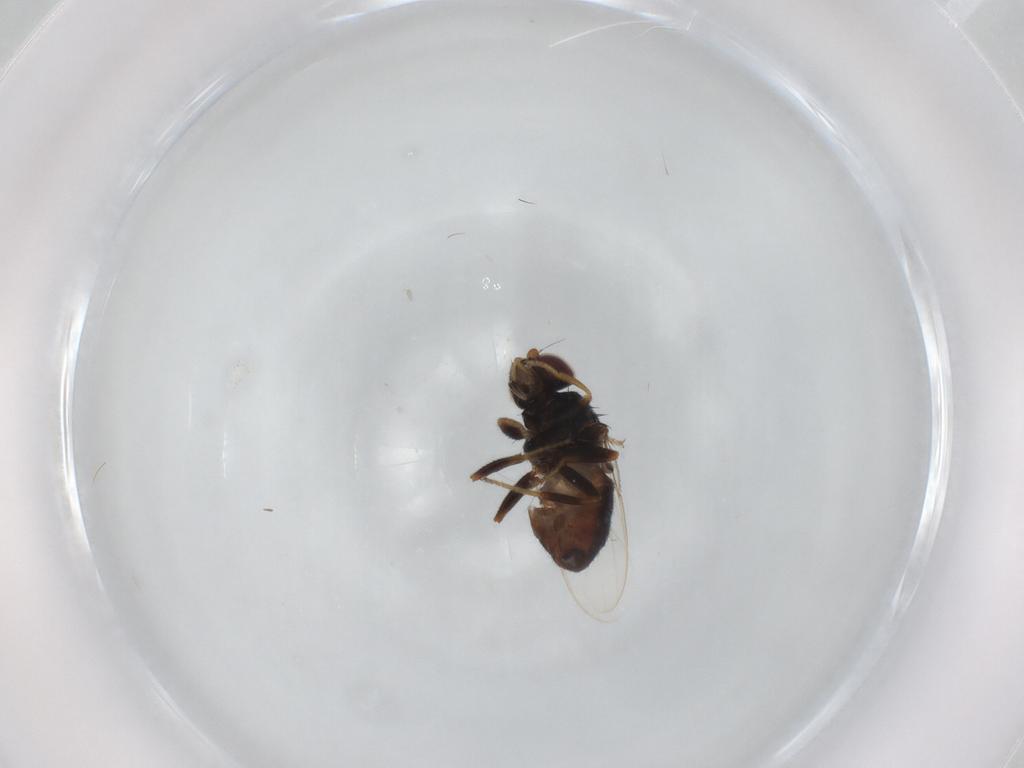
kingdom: Animalia
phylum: Arthropoda
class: Insecta
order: Diptera
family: Chloropidae
